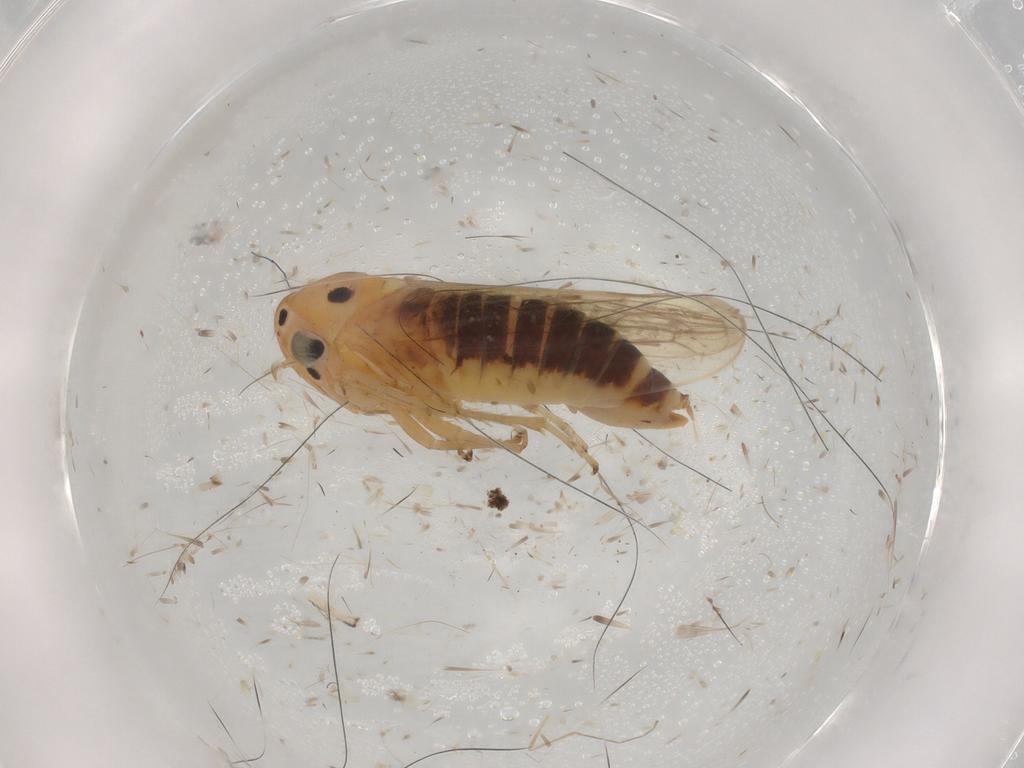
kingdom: Animalia
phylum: Arthropoda
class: Insecta
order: Hemiptera
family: Cicadellidae
